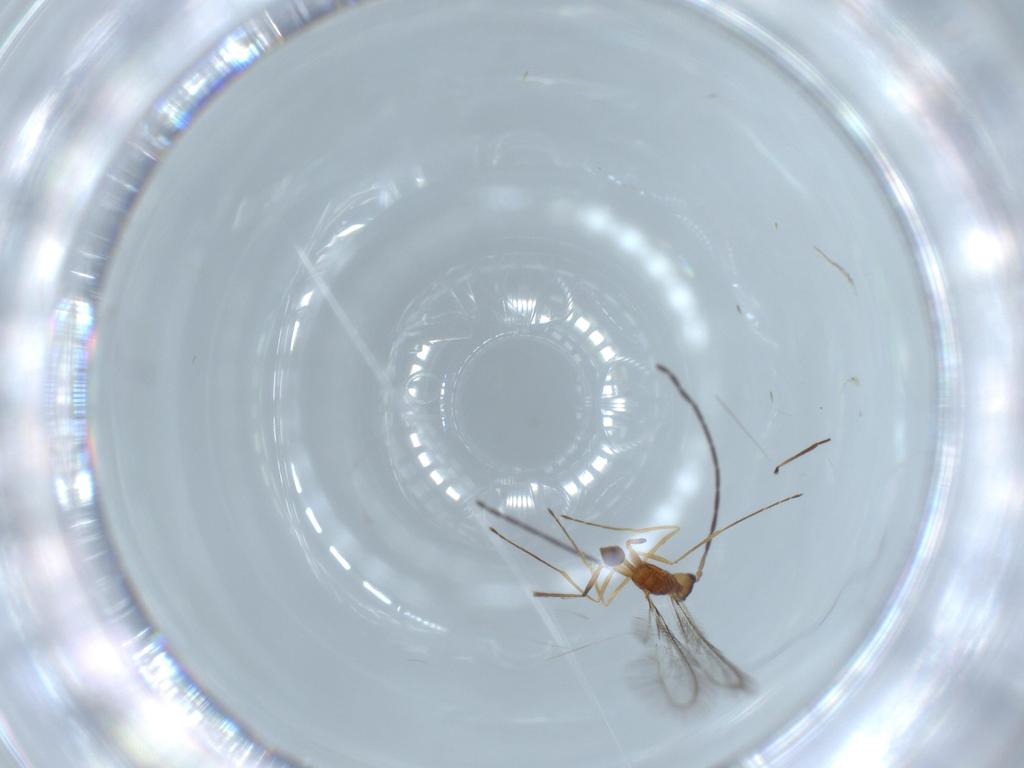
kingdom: Animalia
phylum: Arthropoda
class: Insecta
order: Hymenoptera
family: Mymaridae
